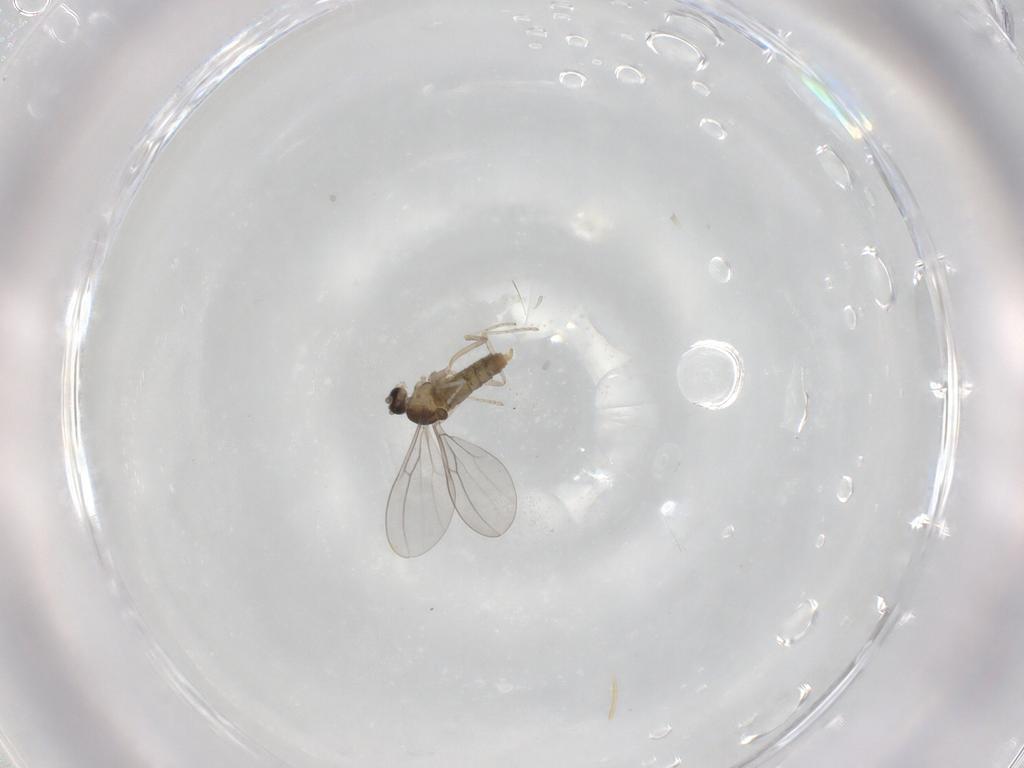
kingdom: Animalia
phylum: Arthropoda
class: Insecta
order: Diptera
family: Cecidomyiidae
